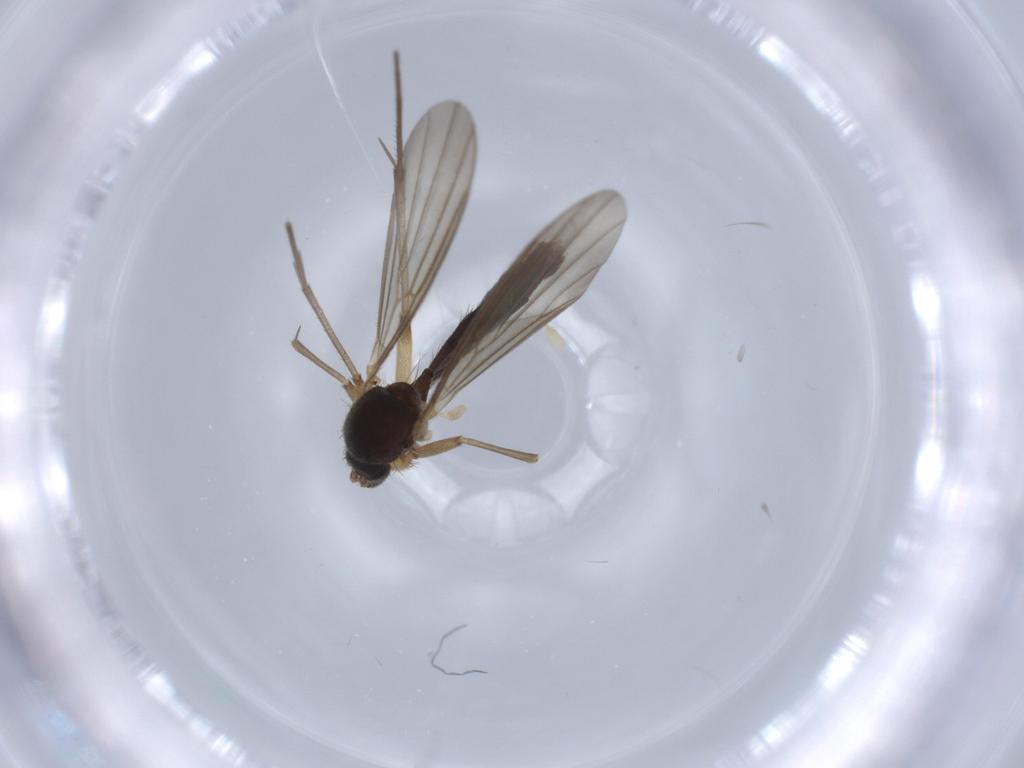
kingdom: Animalia
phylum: Arthropoda
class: Insecta
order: Diptera
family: Mycetophilidae
